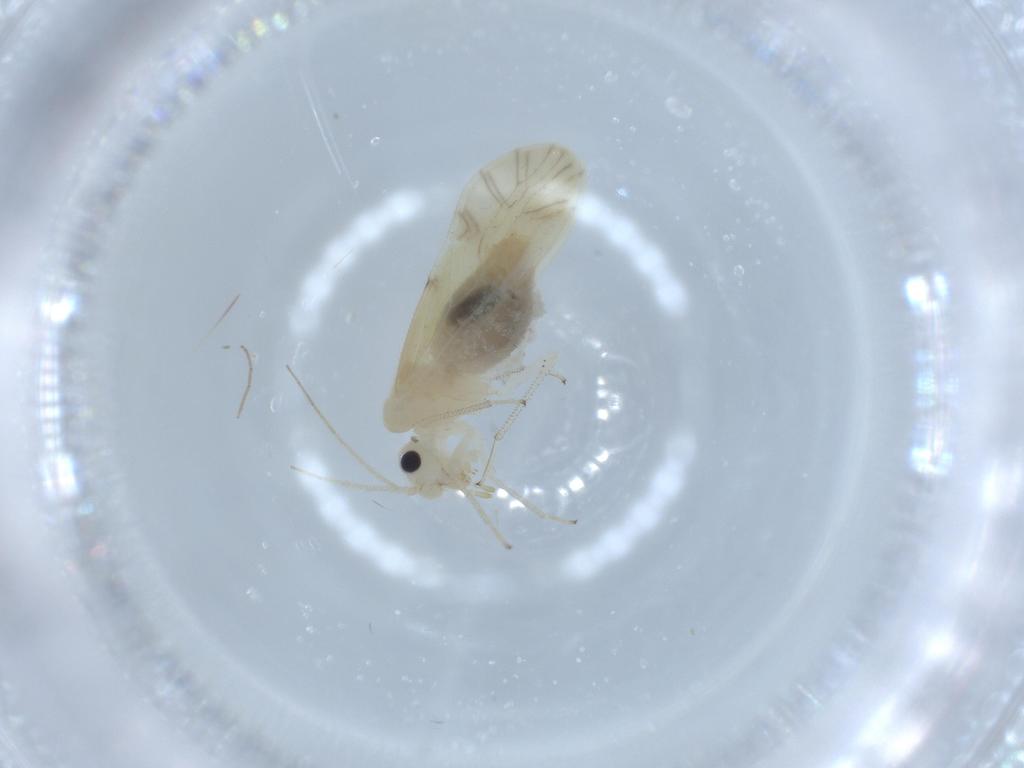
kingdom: Animalia
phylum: Arthropoda
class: Insecta
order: Psocodea
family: Caeciliusidae
